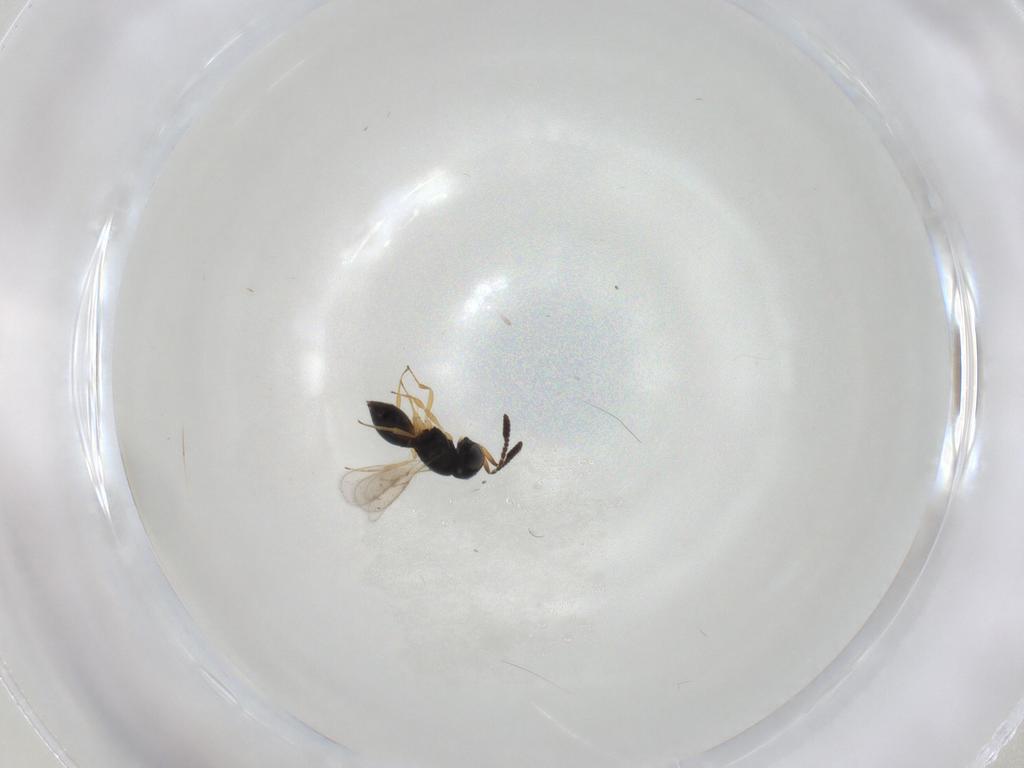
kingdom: Animalia
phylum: Arthropoda
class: Insecta
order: Hymenoptera
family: Scelionidae
